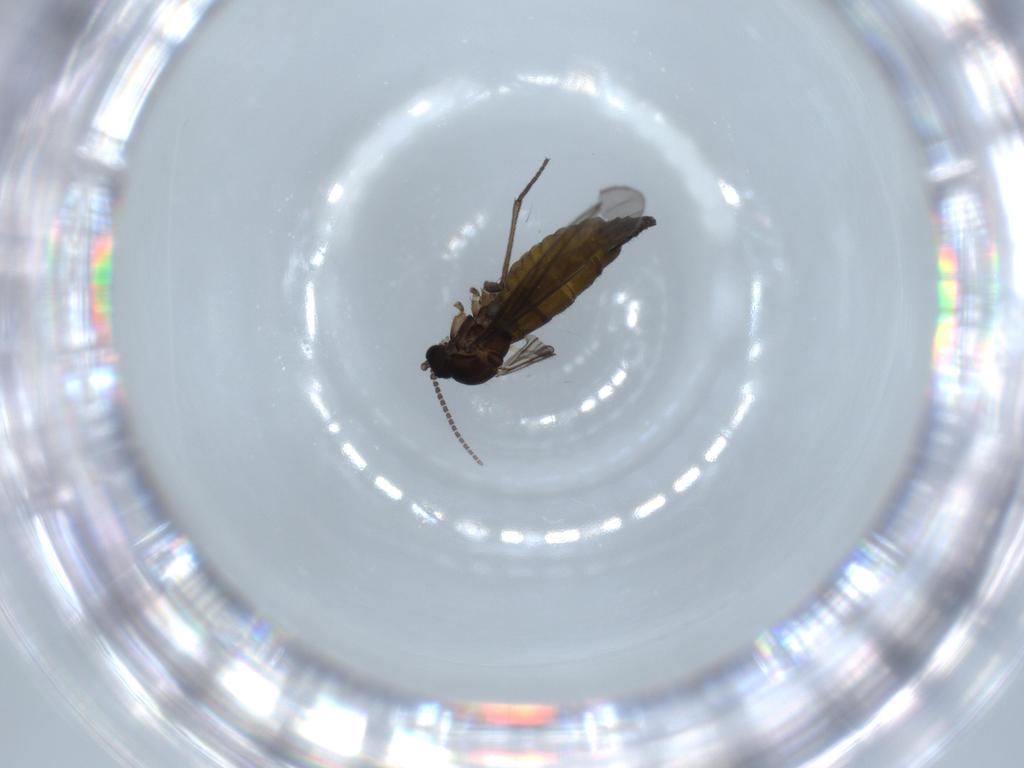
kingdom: Animalia
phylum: Arthropoda
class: Insecta
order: Diptera
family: Sciaridae
